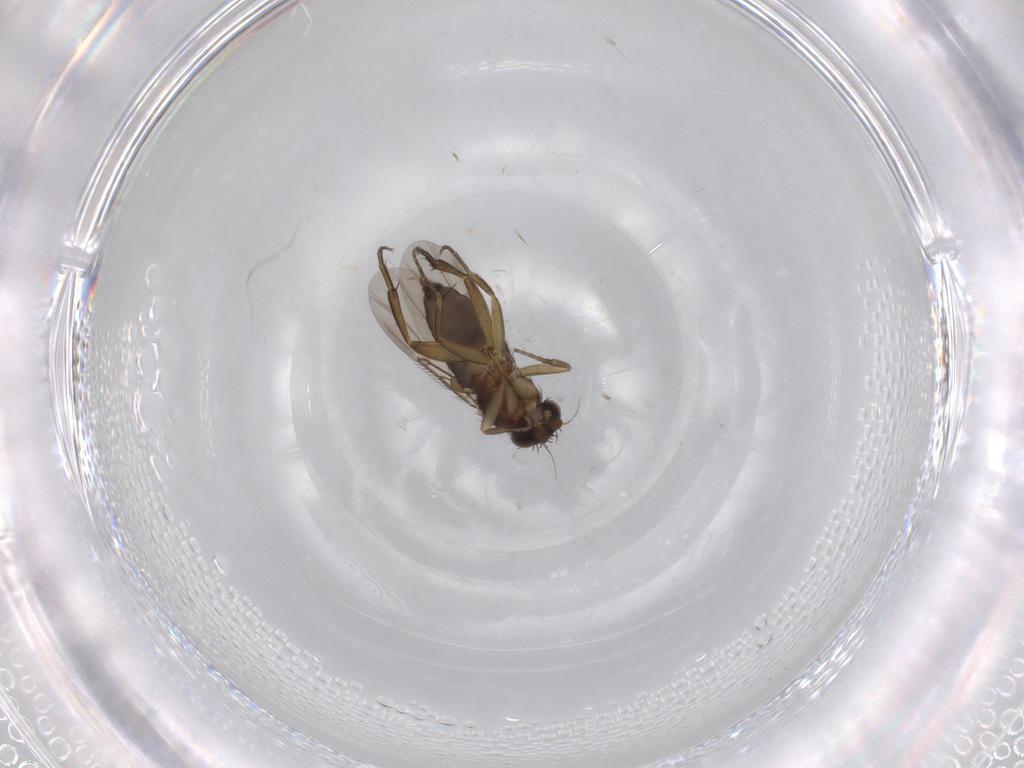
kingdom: Animalia
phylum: Arthropoda
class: Insecta
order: Diptera
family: Phoridae
